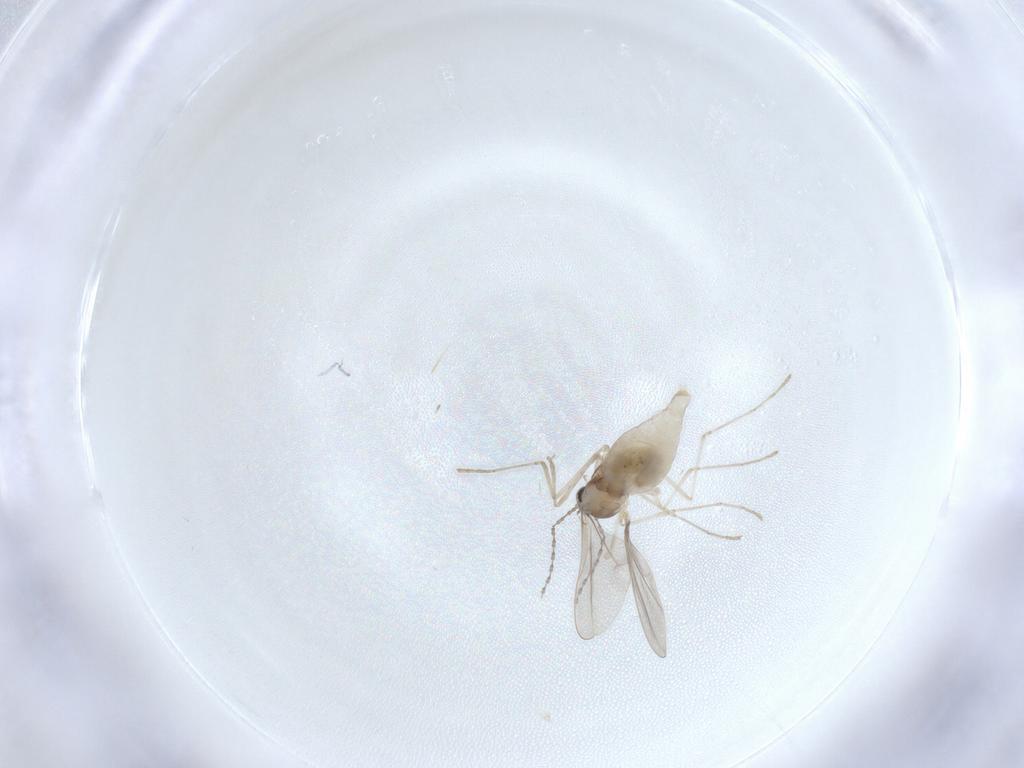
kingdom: Animalia
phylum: Arthropoda
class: Insecta
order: Diptera
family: Cecidomyiidae
